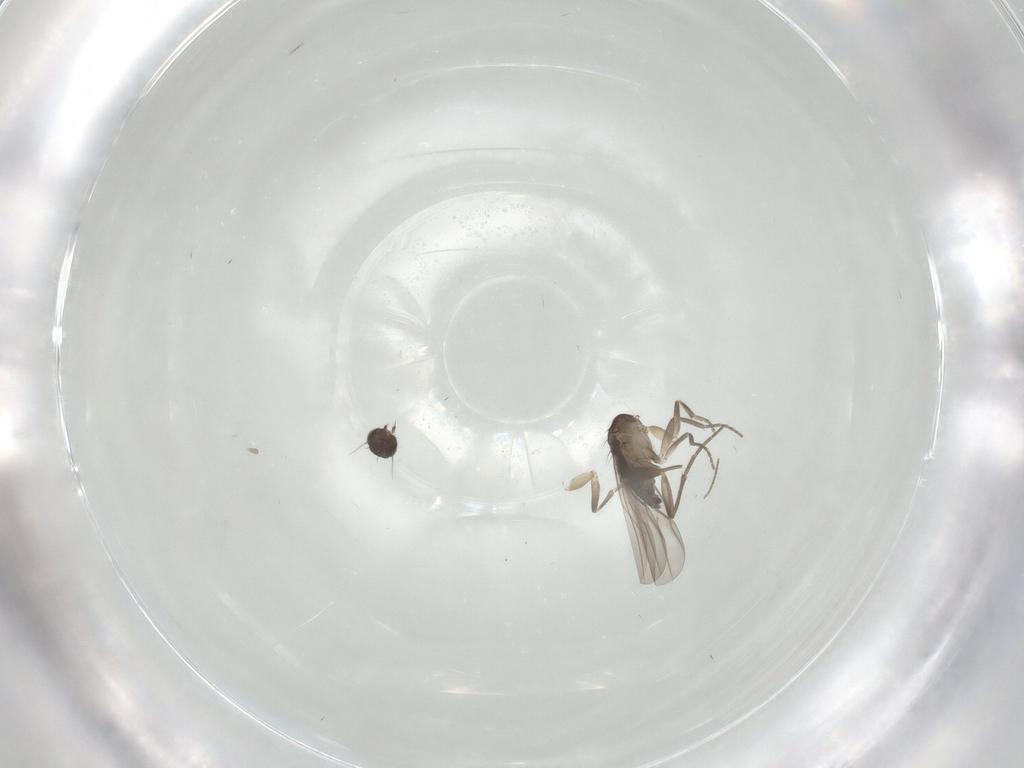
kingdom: Animalia
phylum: Arthropoda
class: Insecta
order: Diptera
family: Phoridae
